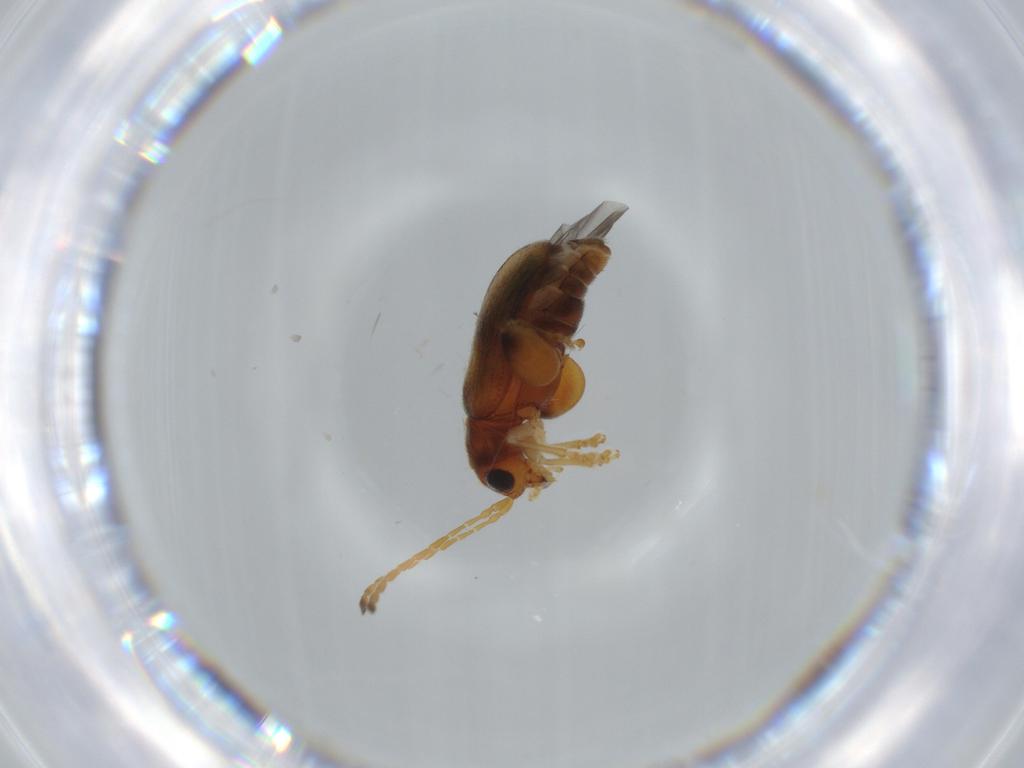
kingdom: Animalia
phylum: Arthropoda
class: Insecta
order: Coleoptera
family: Chrysomelidae
